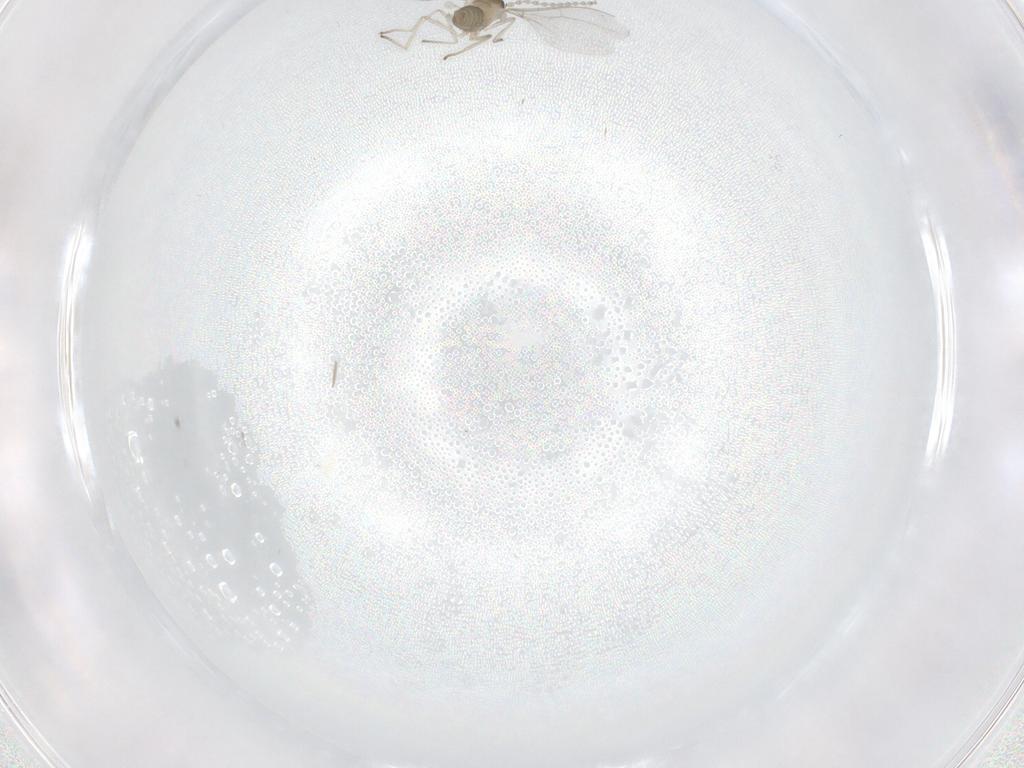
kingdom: Animalia
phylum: Arthropoda
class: Insecta
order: Diptera
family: Cecidomyiidae
